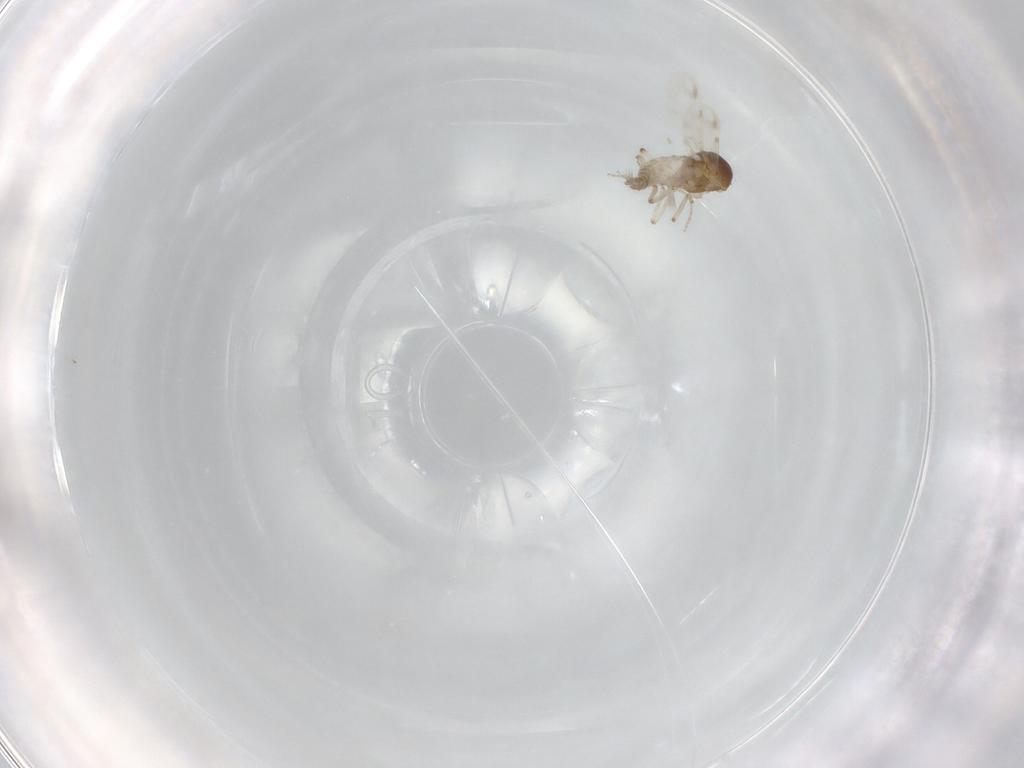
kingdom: Animalia
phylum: Arthropoda
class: Insecta
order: Diptera
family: Ceratopogonidae
